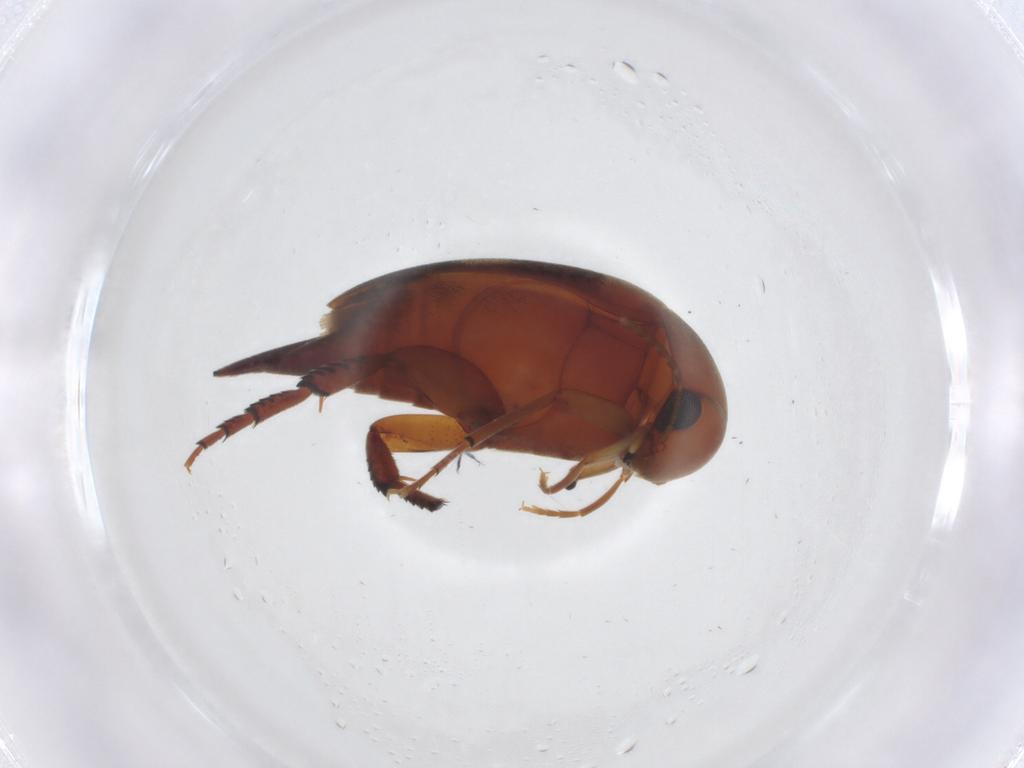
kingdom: Animalia
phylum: Arthropoda
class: Insecta
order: Coleoptera
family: Mordellidae
